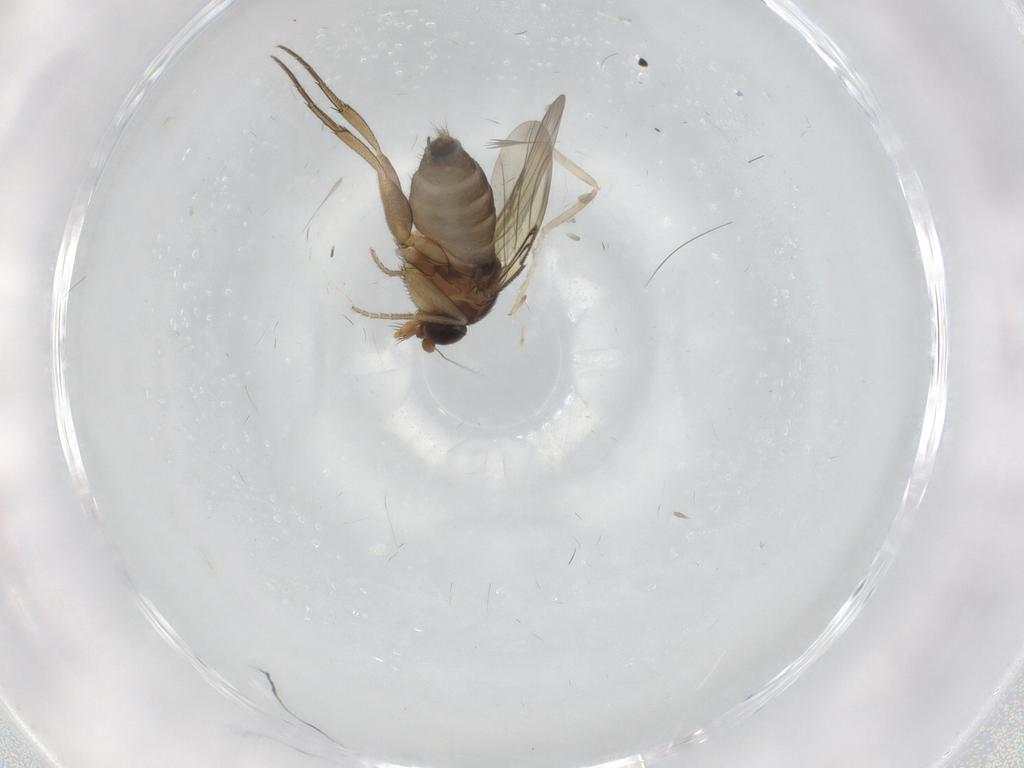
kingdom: Animalia
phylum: Arthropoda
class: Insecta
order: Diptera
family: Phoridae
